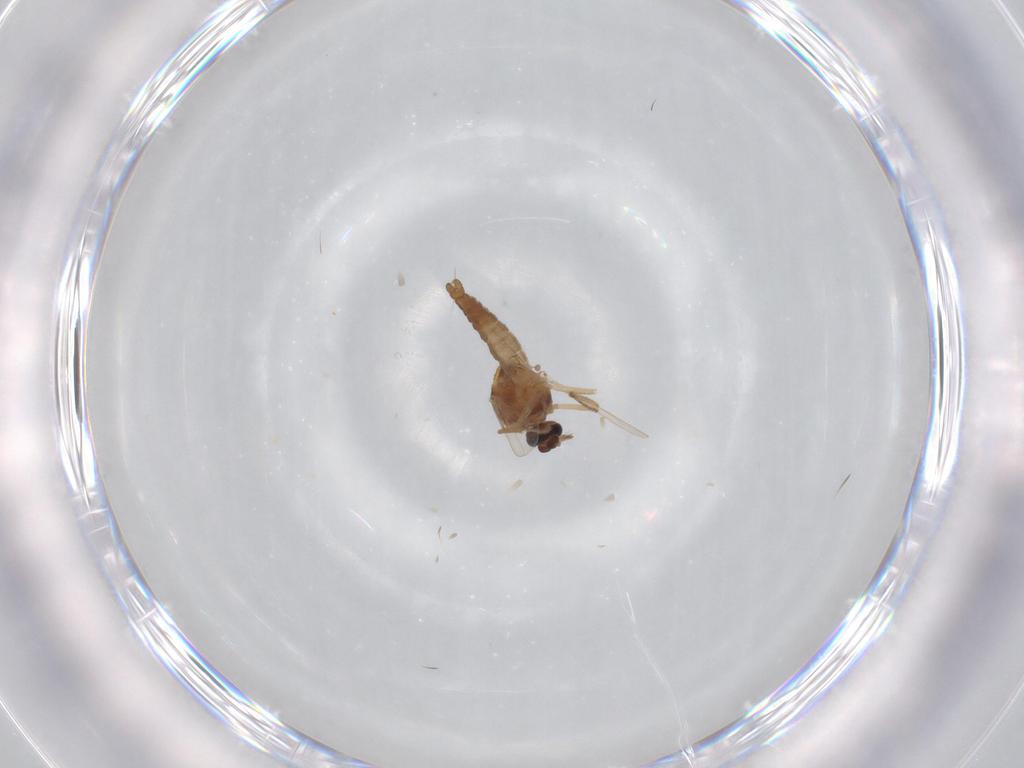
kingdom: Animalia
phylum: Arthropoda
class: Insecta
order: Diptera
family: Ceratopogonidae
